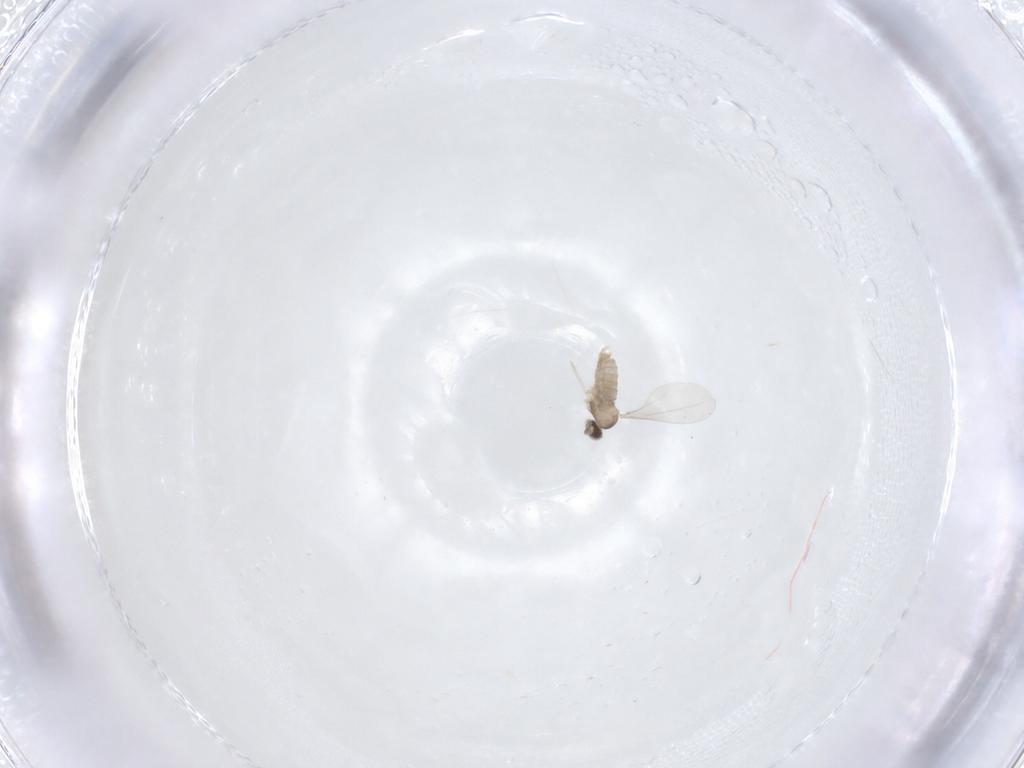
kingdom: Animalia
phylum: Arthropoda
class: Insecta
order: Diptera
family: Cecidomyiidae
